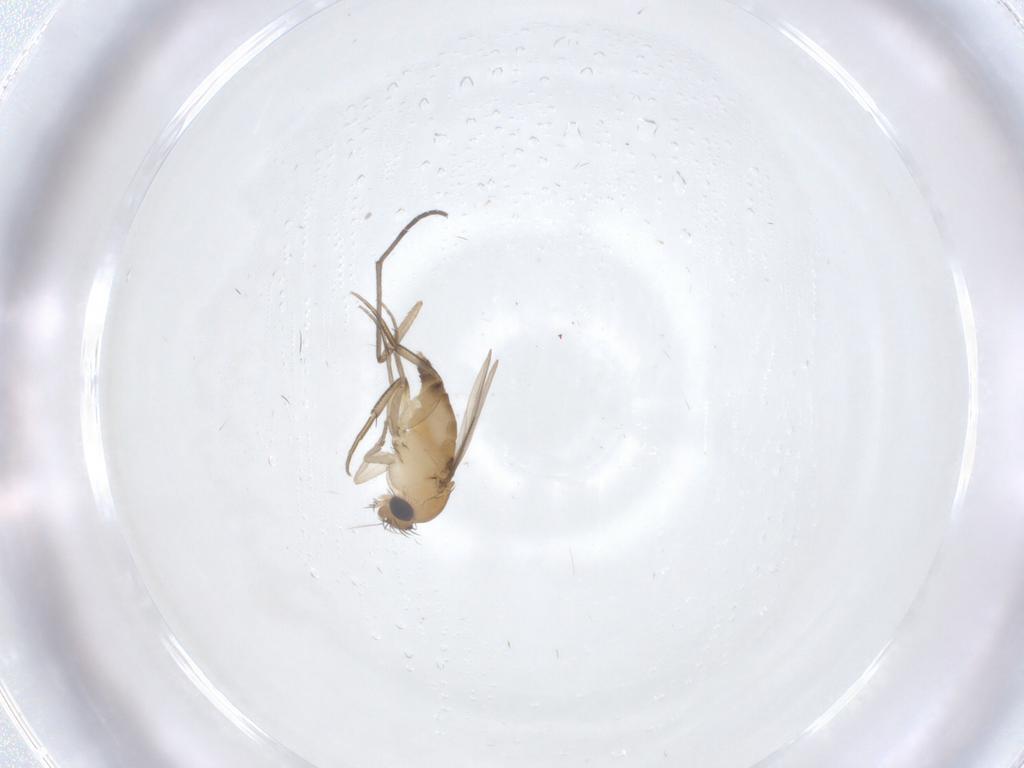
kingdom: Animalia
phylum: Arthropoda
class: Insecta
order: Diptera
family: Phoridae
